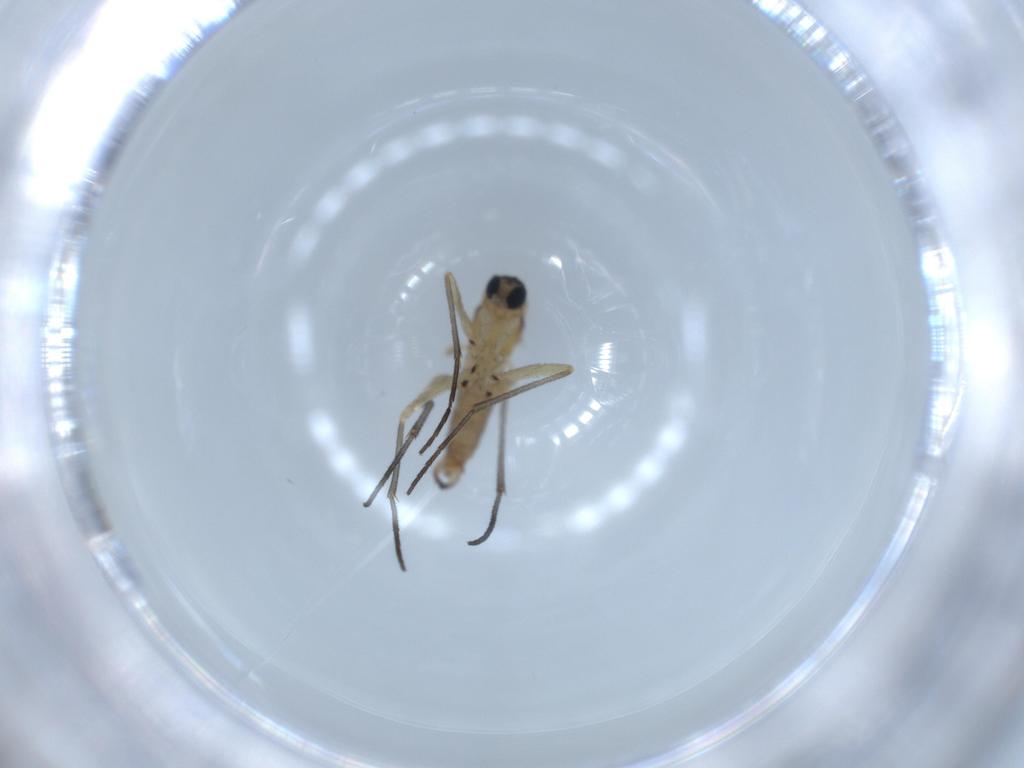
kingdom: Animalia
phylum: Arthropoda
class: Insecta
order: Diptera
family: Sciaridae
